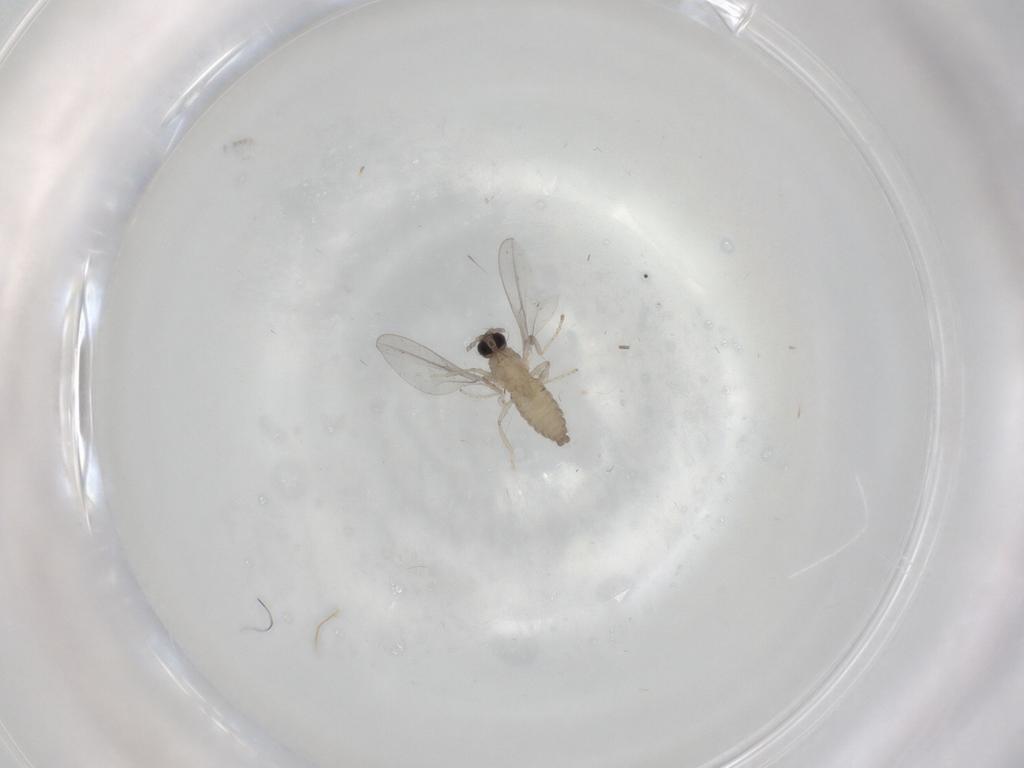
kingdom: Animalia
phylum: Arthropoda
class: Insecta
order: Diptera
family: Cecidomyiidae
